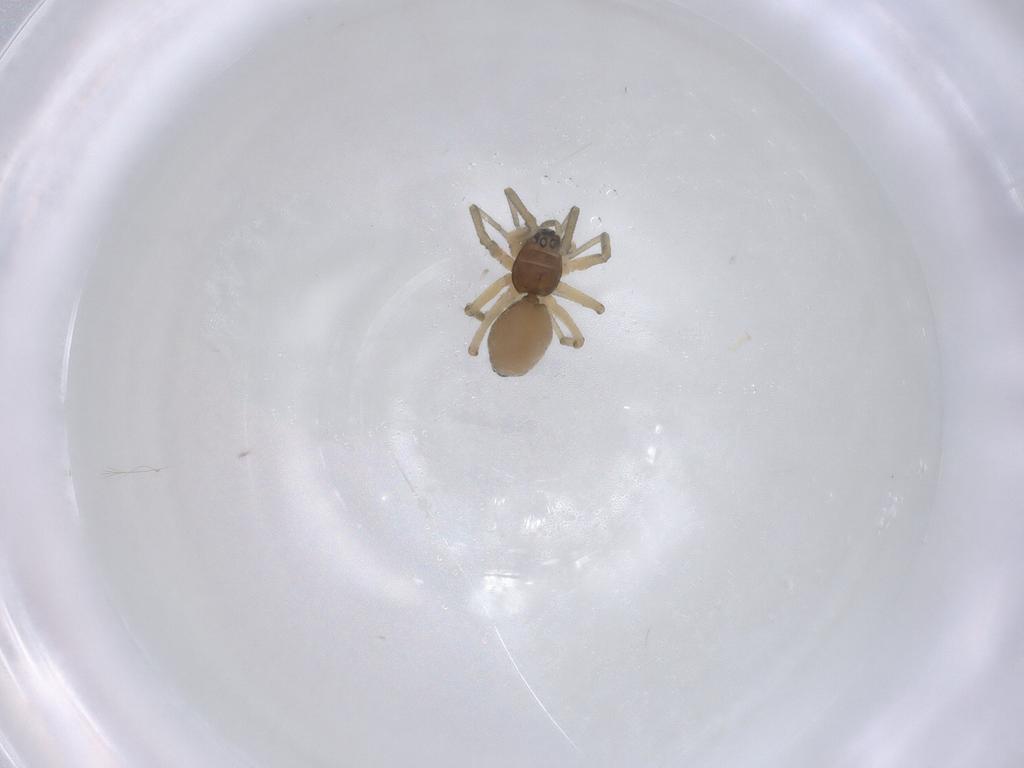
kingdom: Animalia
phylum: Arthropoda
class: Arachnida
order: Araneae
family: Linyphiidae
